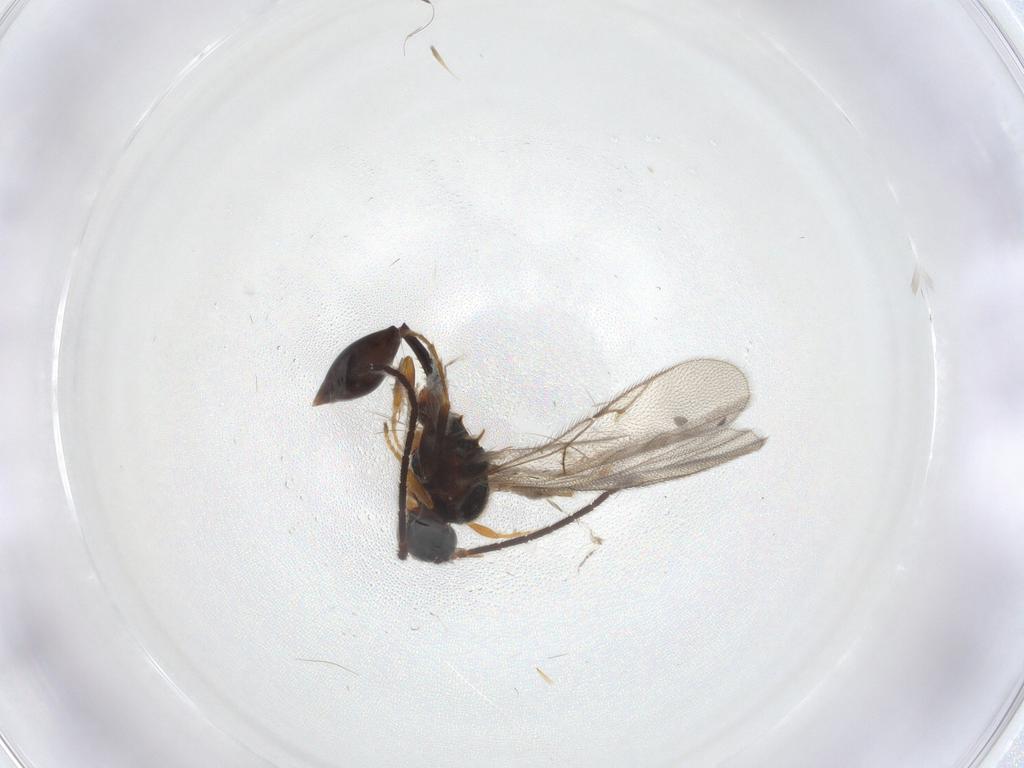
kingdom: Animalia
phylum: Arthropoda
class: Insecta
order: Hymenoptera
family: Diapriidae
